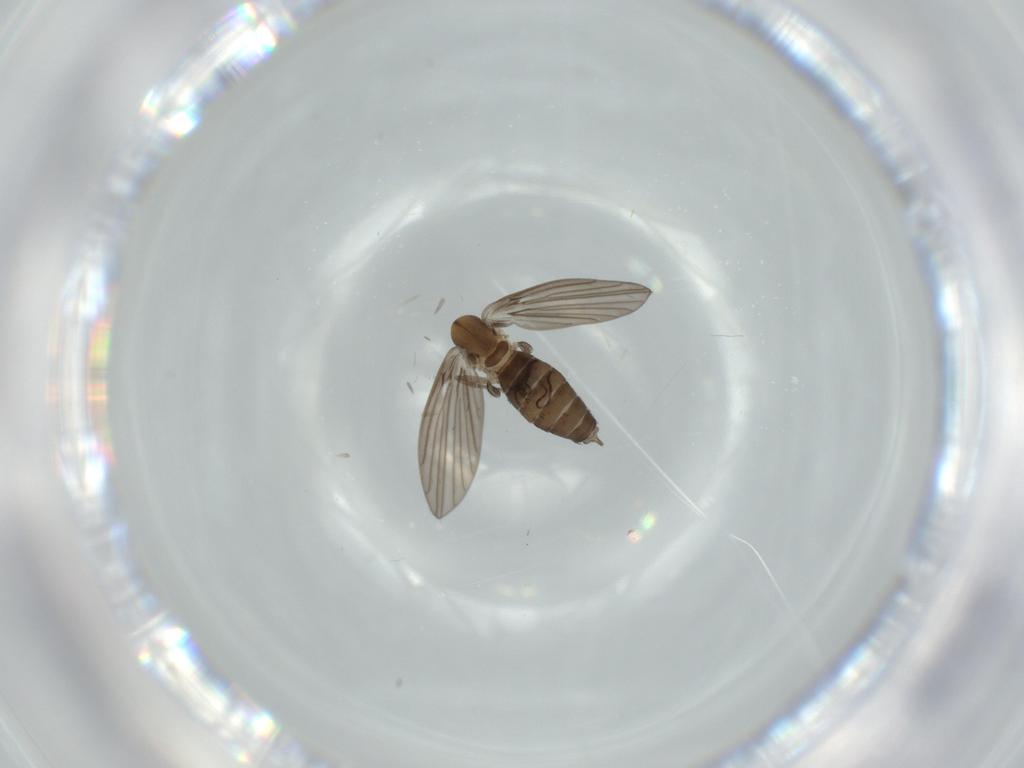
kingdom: Animalia
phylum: Arthropoda
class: Insecta
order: Diptera
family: Psychodidae
